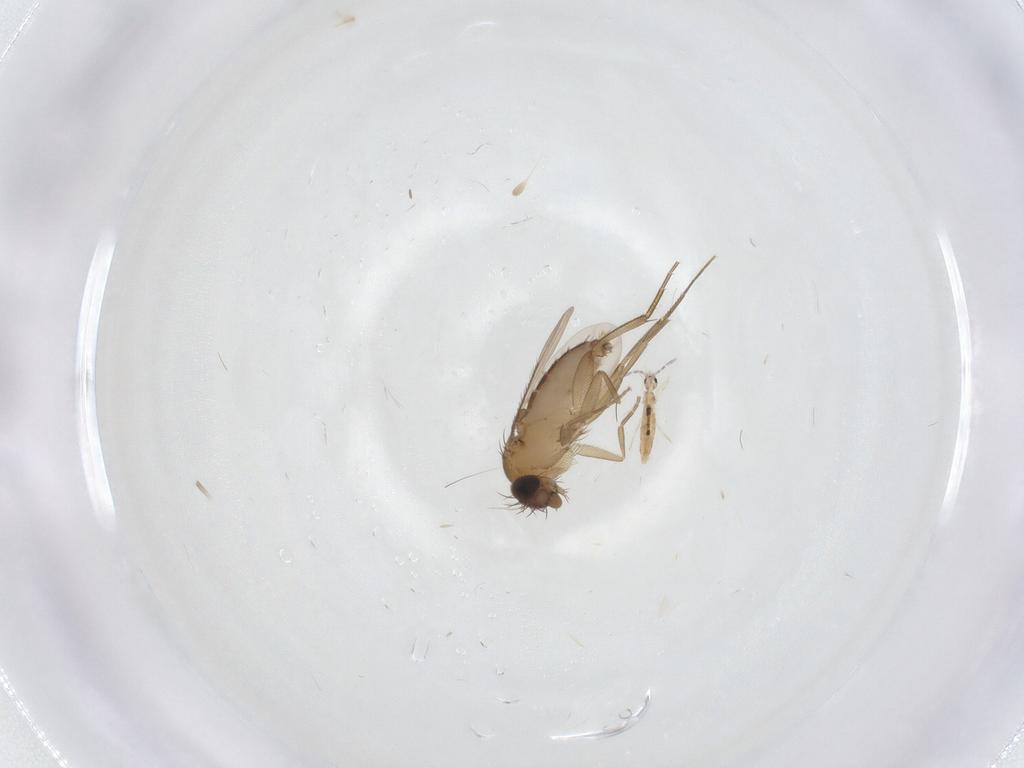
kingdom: Animalia
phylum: Arthropoda
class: Insecta
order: Diptera
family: Phoridae
